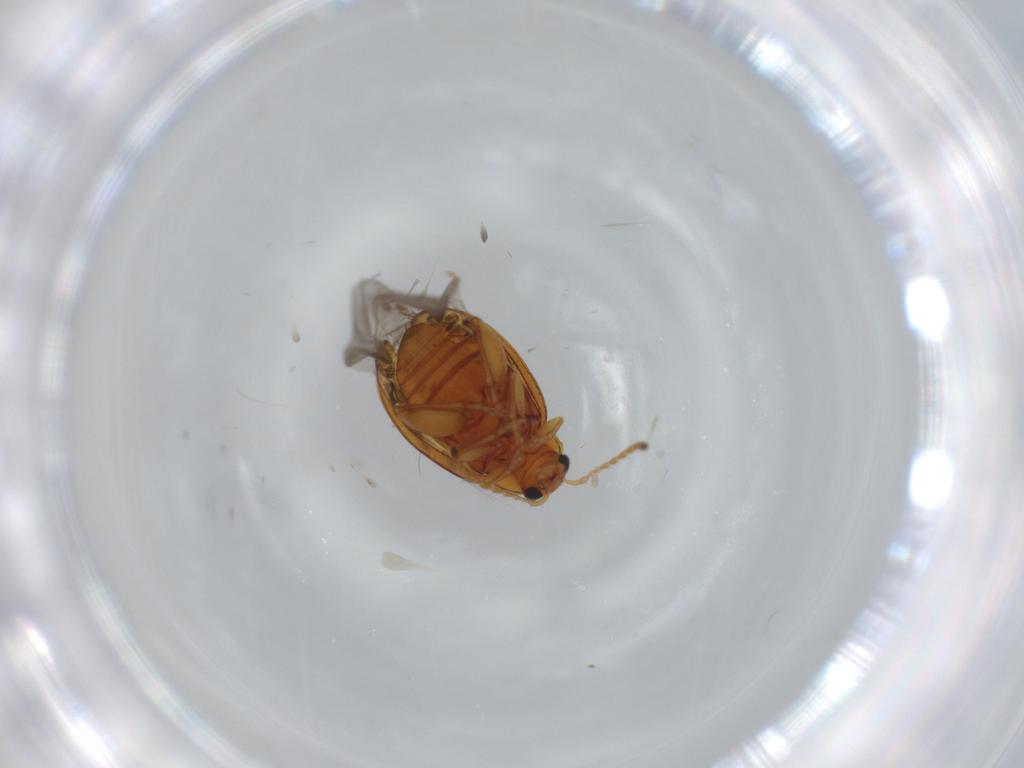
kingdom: Animalia
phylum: Arthropoda
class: Insecta
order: Coleoptera
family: Chrysomelidae
